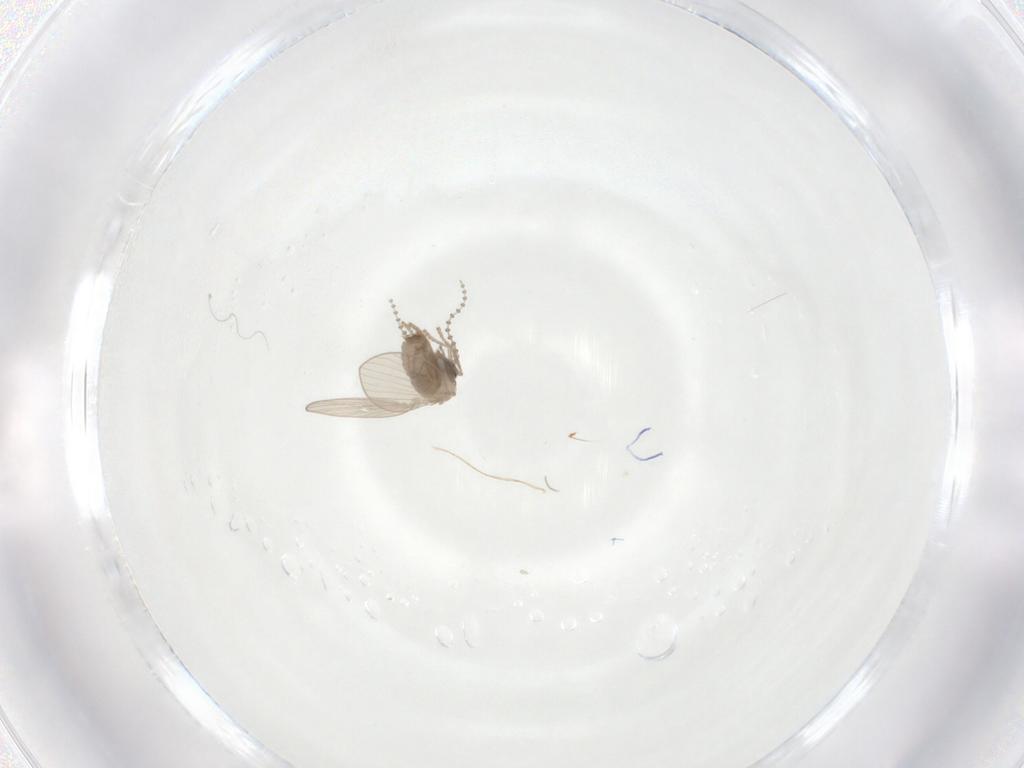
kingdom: Animalia
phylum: Arthropoda
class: Insecta
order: Diptera
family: Psychodidae
